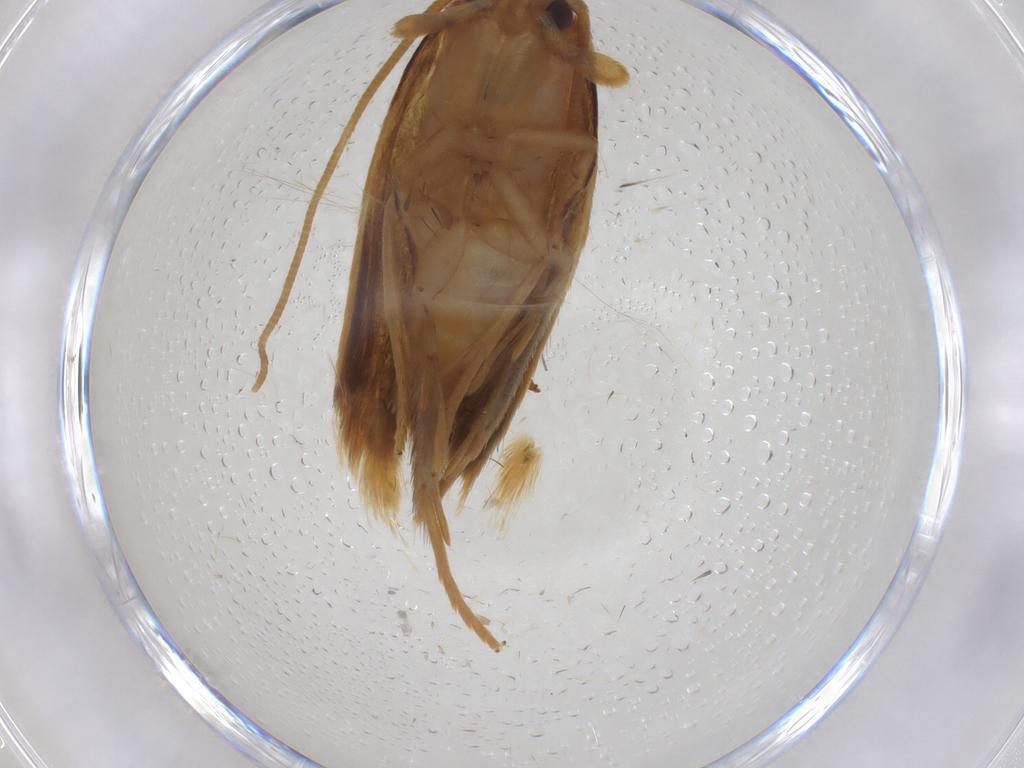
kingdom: Animalia
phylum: Arthropoda
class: Insecta
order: Lepidoptera
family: Tineidae
